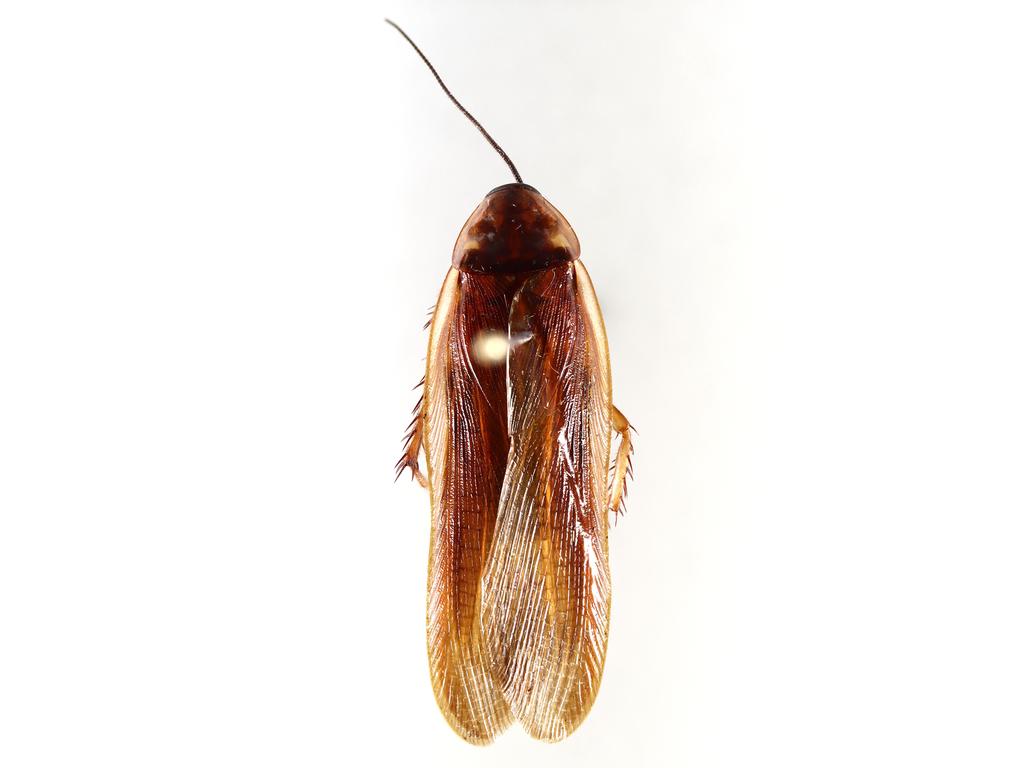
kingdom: Animalia
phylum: Arthropoda
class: Insecta
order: Diptera
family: Phoridae
